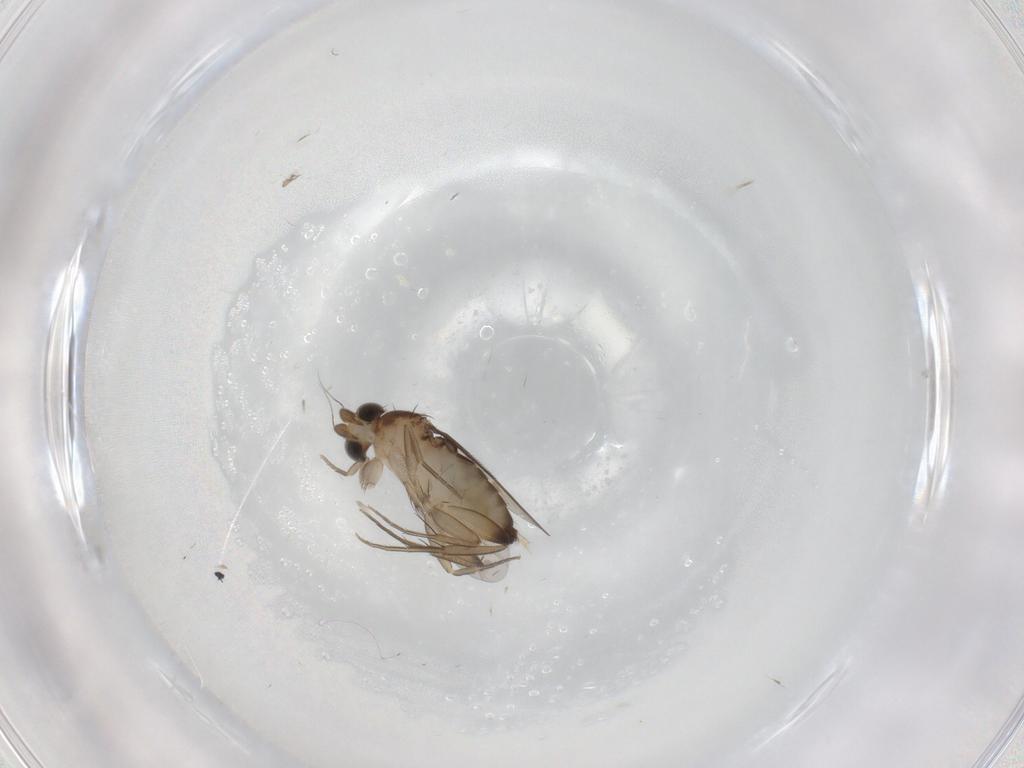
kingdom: Animalia
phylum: Arthropoda
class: Insecta
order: Diptera
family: Phoridae
